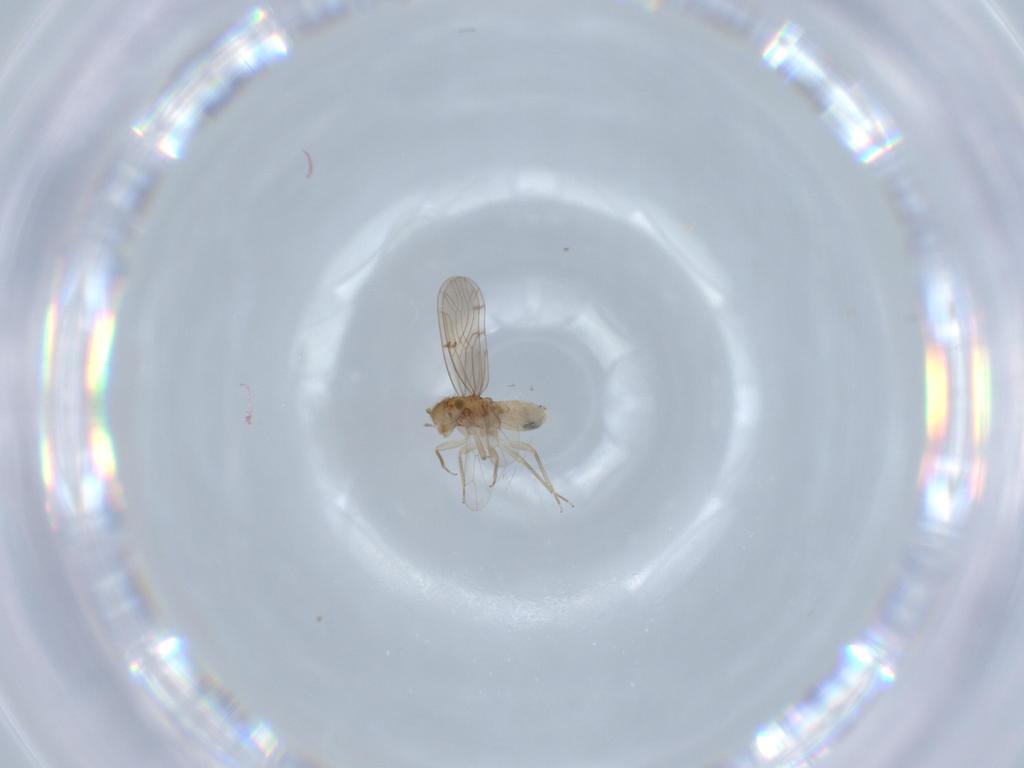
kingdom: Animalia
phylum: Arthropoda
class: Insecta
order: Psocodea
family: Ectopsocidae
